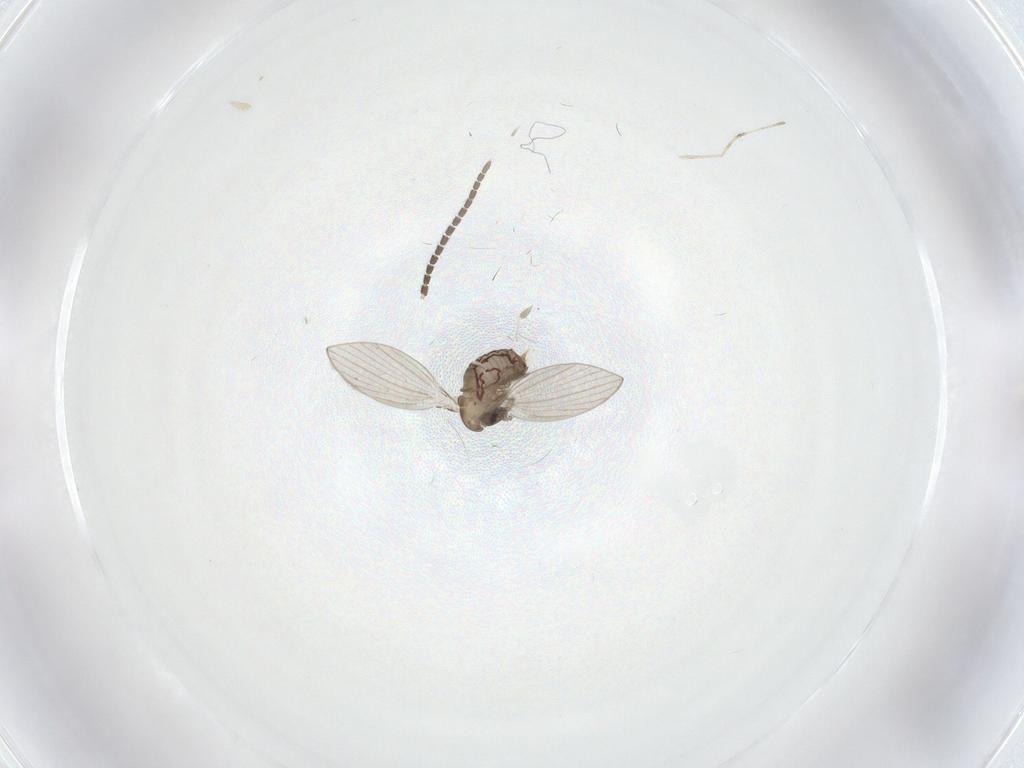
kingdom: Animalia
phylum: Arthropoda
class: Insecta
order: Diptera
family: Psychodidae
